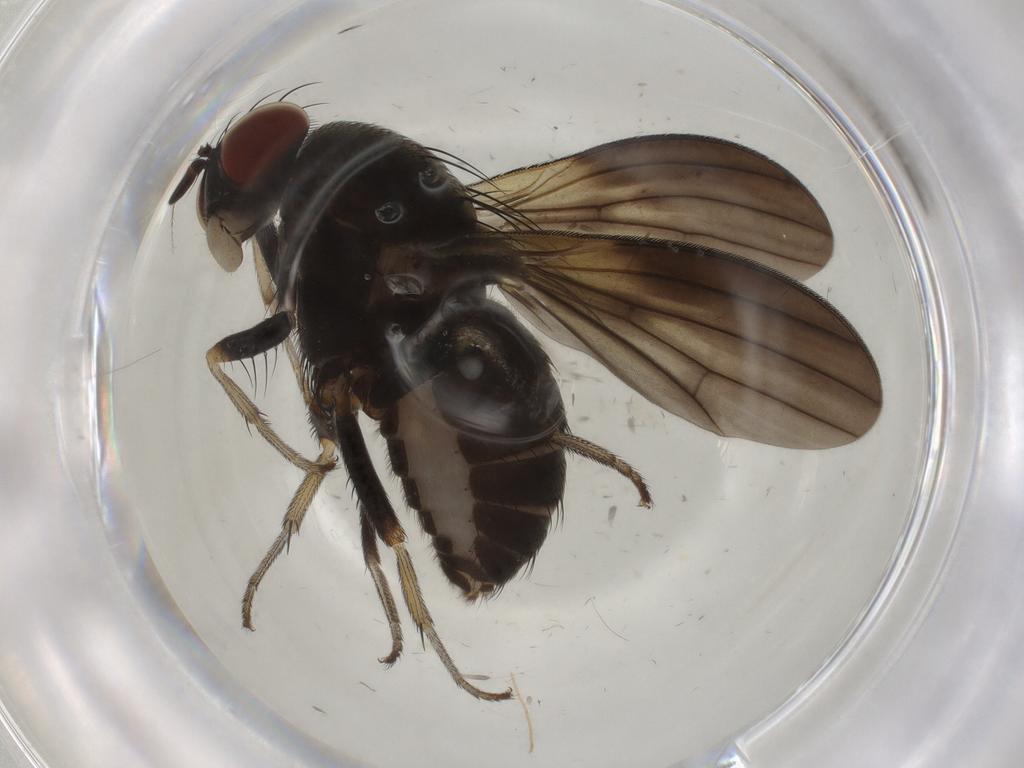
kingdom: Animalia
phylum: Arthropoda
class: Insecta
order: Diptera
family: Chironomidae
